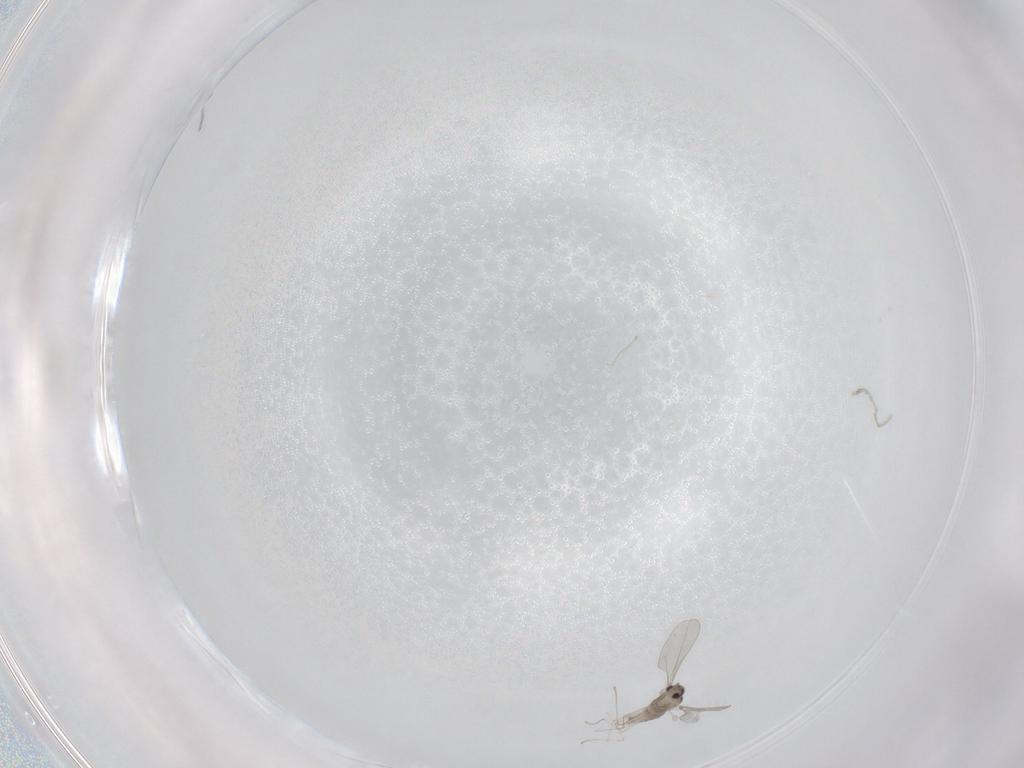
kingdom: Animalia
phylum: Arthropoda
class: Insecta
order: Diptera
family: Cecidomyiidae
